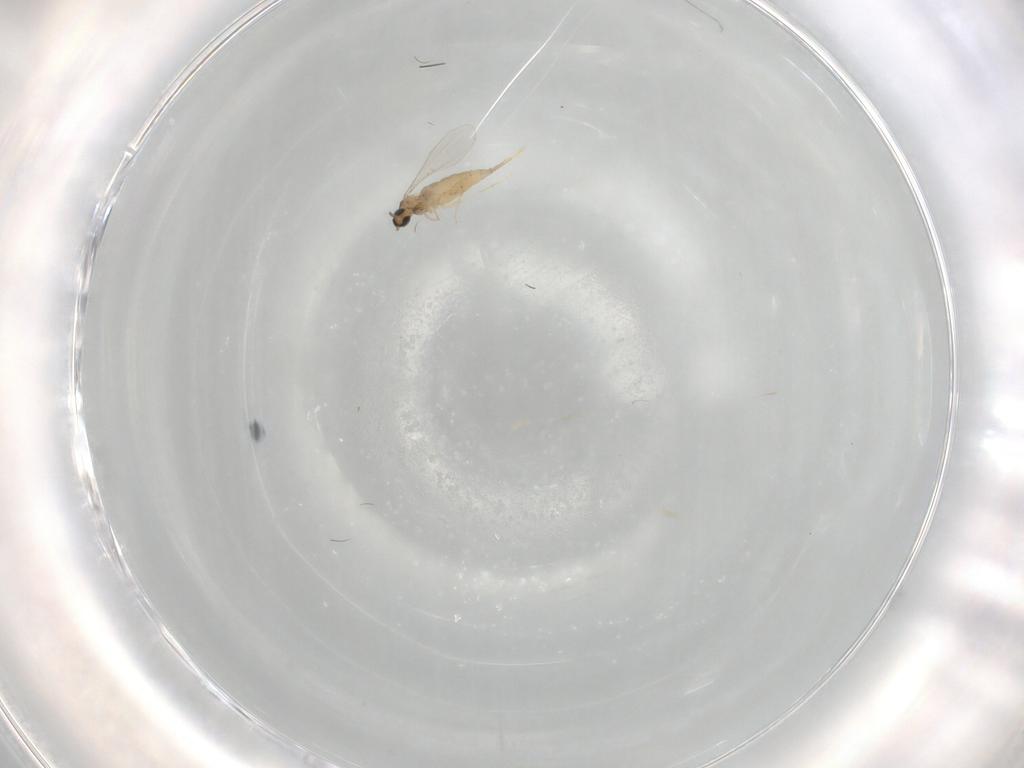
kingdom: Animalia
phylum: Arthropoda
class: Insecta
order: Diptera
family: Tabanidae
